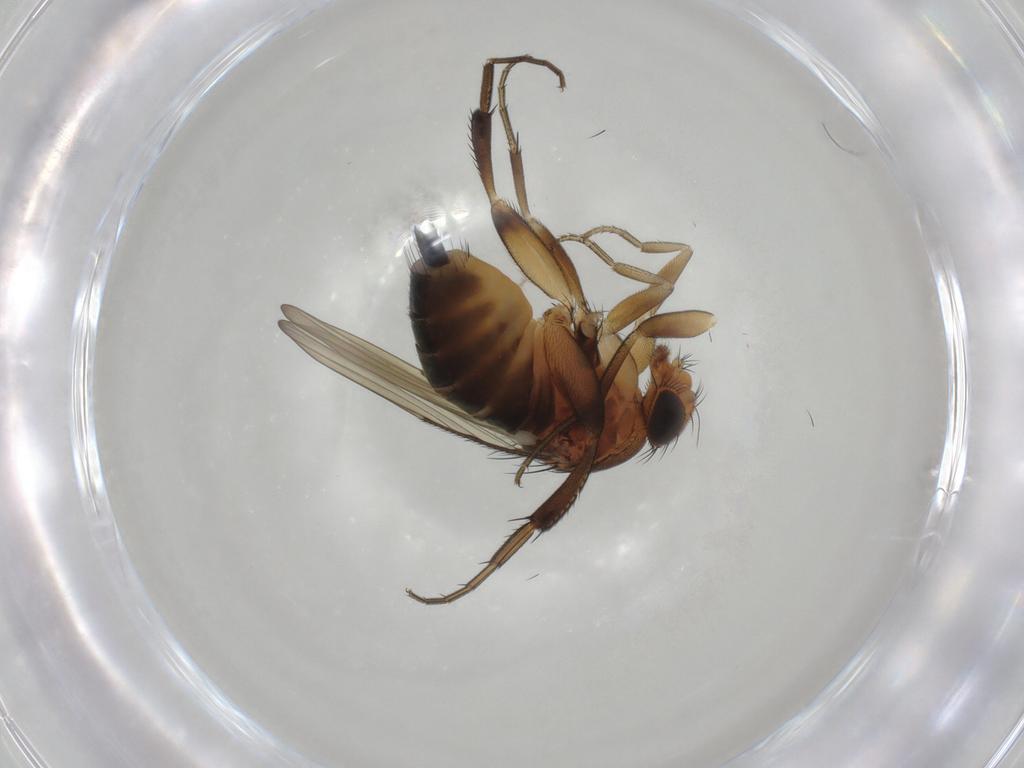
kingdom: Animalia
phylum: Arthropoda
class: Insecta
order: Diptera
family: Phoridae
